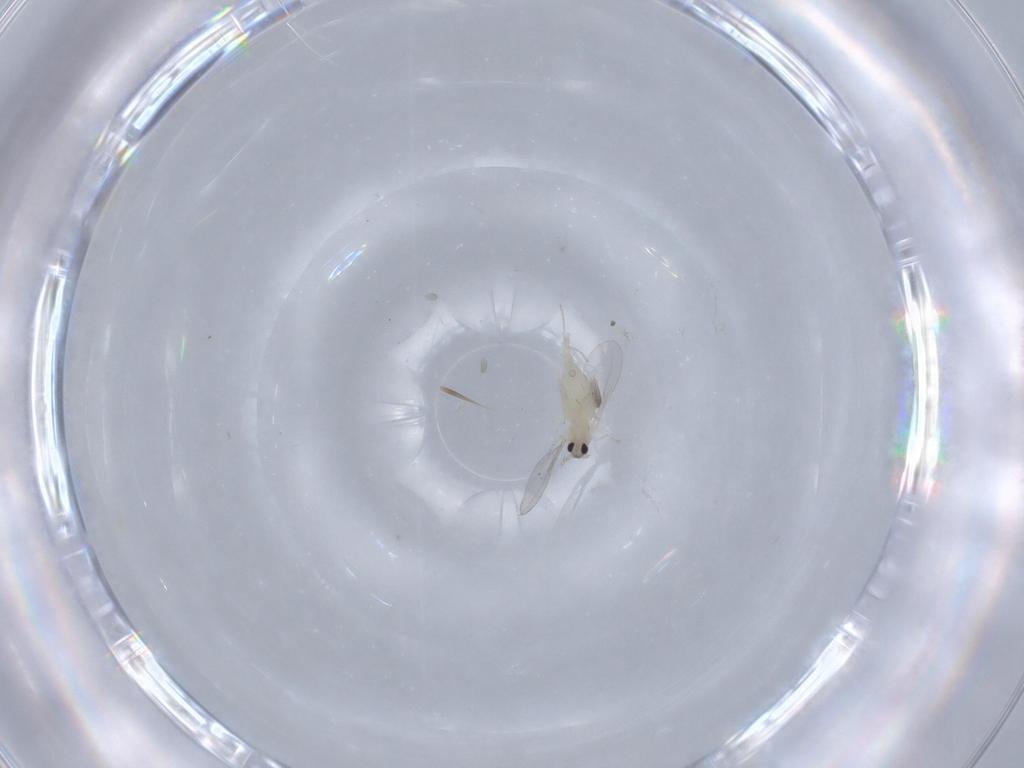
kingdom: Animalia
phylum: Arthropoda
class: Insecta
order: Diptera
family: Cecidomyiidae
